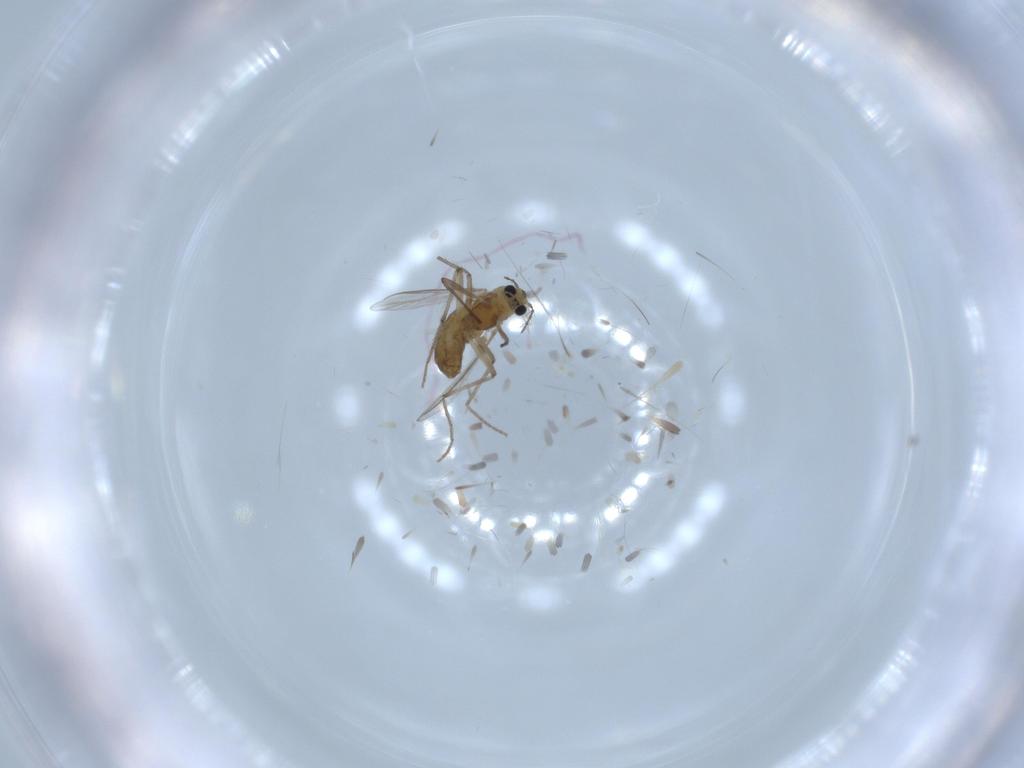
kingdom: Animalia
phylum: Arthropoda
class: Insecta
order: Diptera
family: Chironomidae
